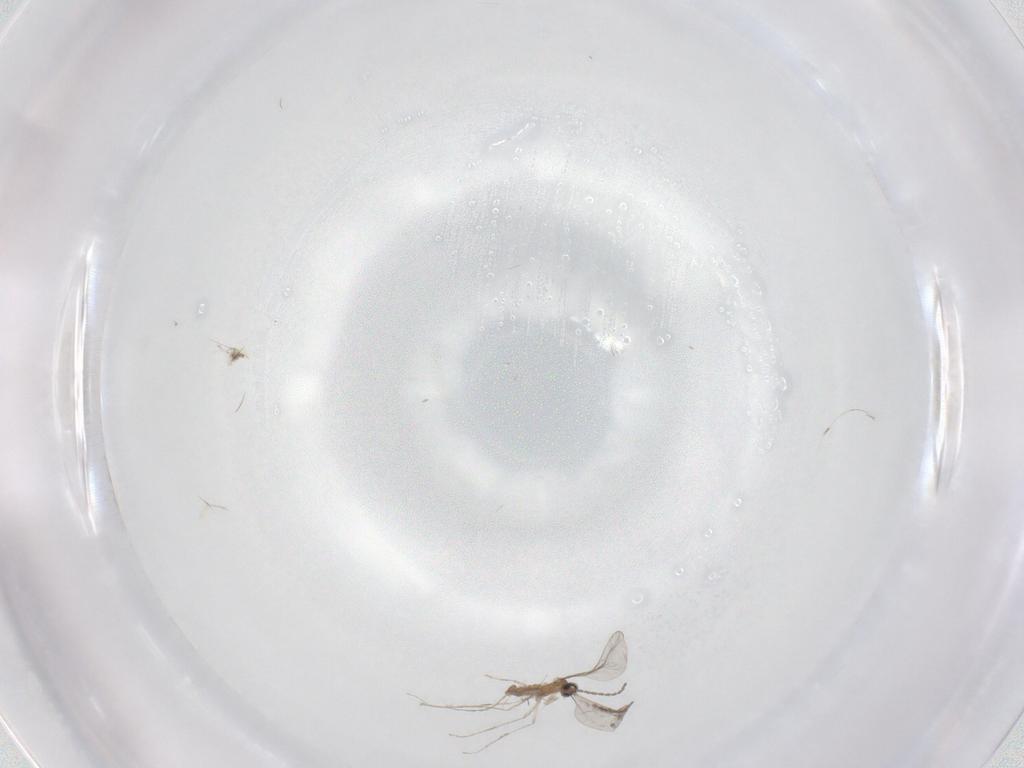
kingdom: Animalia
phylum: Arthropoda
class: Insecta
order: Diptera
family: Cecidomyiidae
